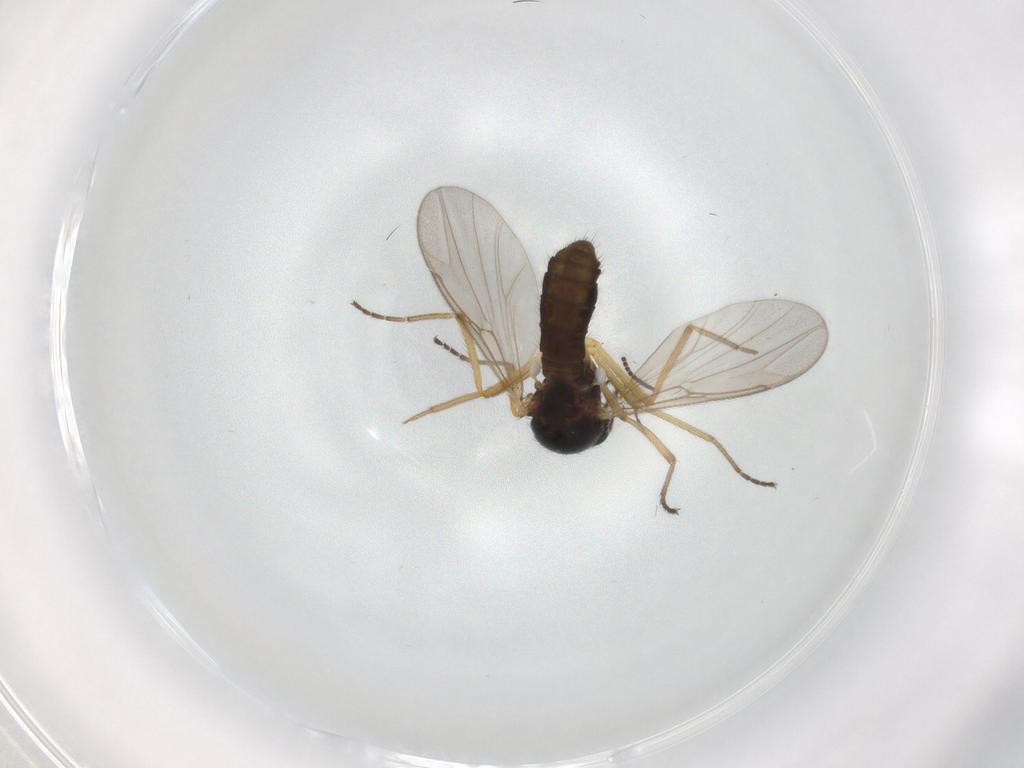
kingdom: Animalia
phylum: Arthropoda
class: Insecta
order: Diptera
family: Ceratopogonidae
